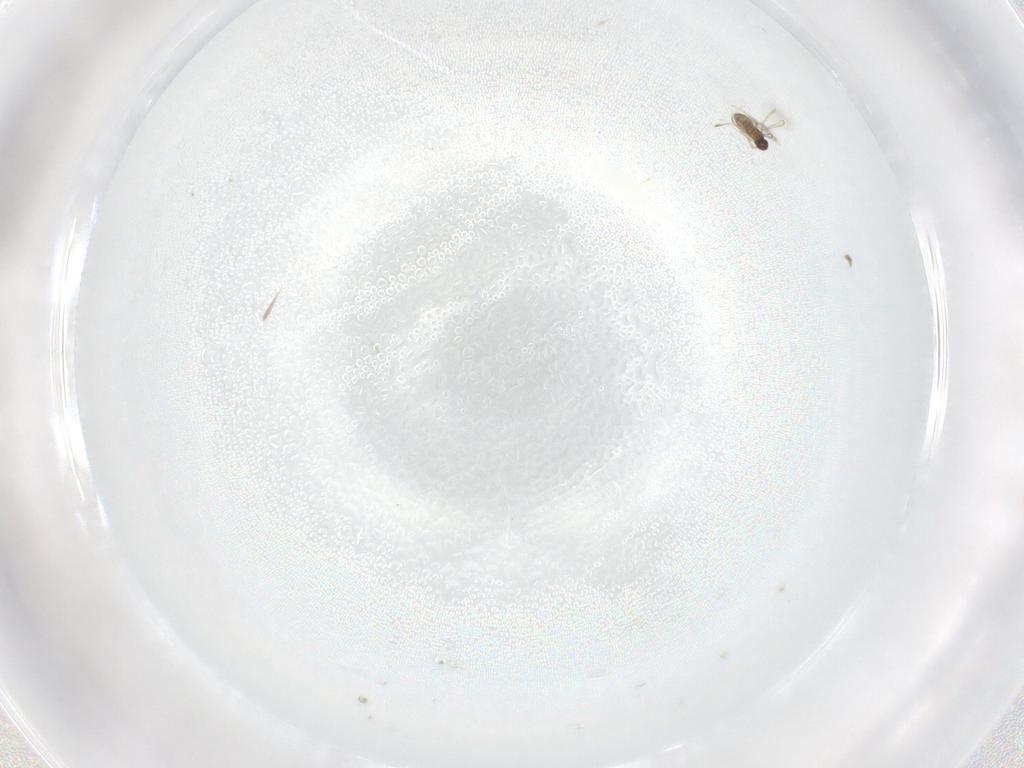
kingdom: Animalia
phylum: Arthropoda
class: Insecta
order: Hymenoptera
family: Mymaridae
